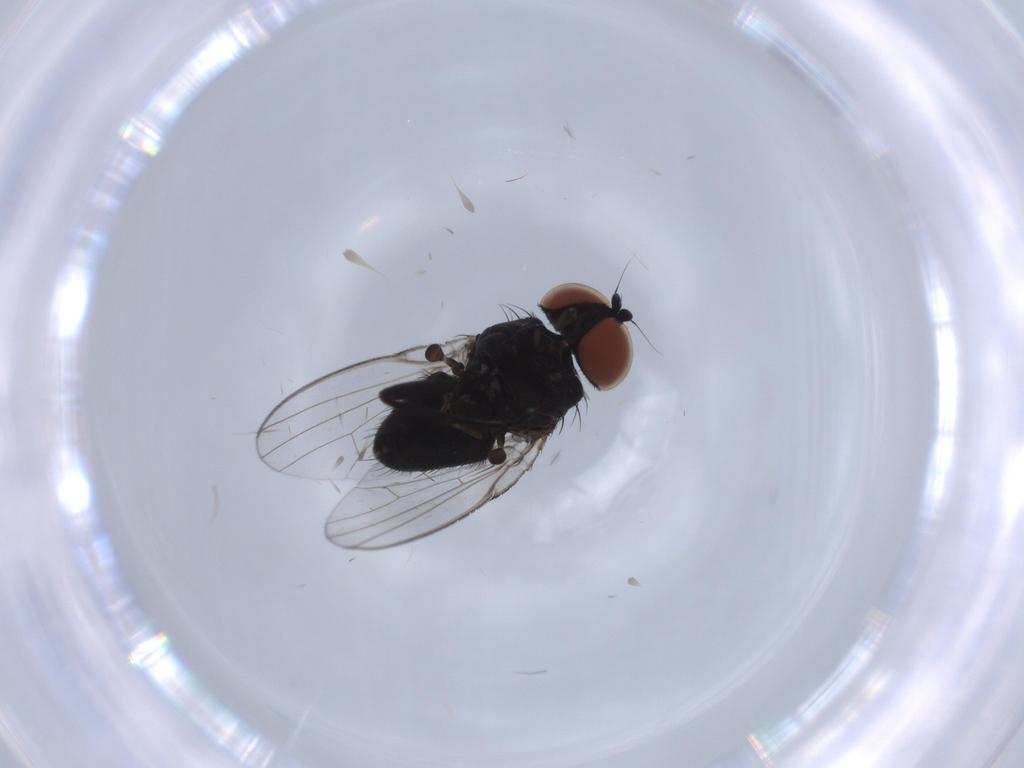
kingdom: Animalia
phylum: Arthropoda
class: Insecta
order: Diptera
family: Milichiidae
